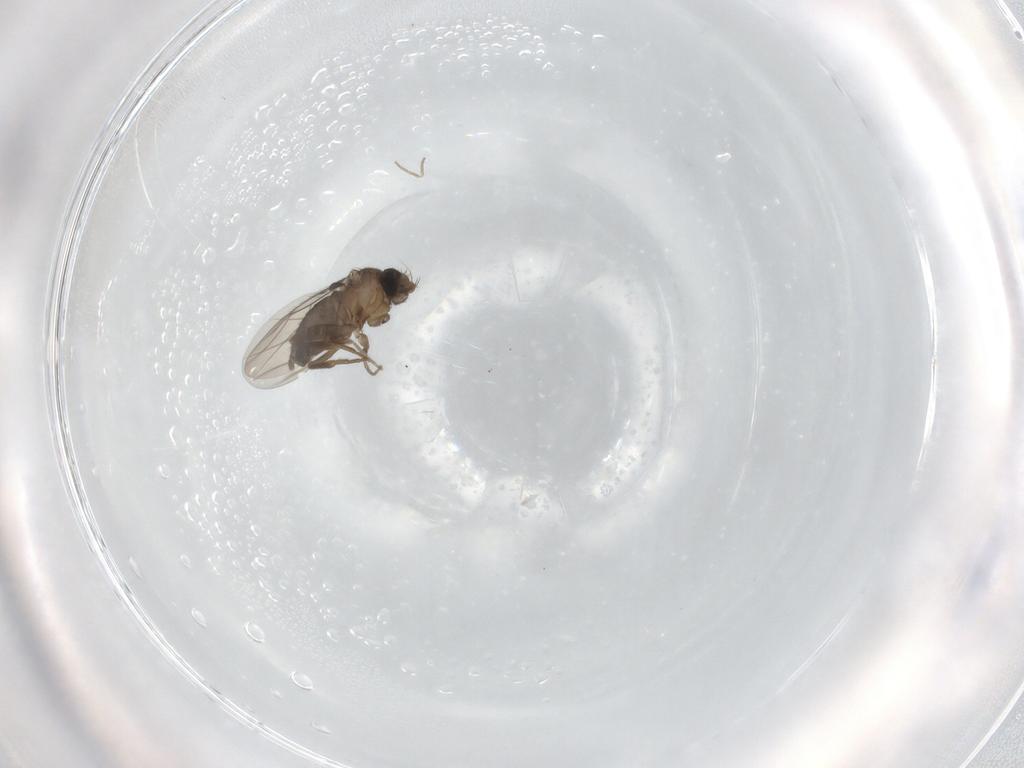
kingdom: Animalia
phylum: Arthropoda
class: Insecta
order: Diptera
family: Phoridae
